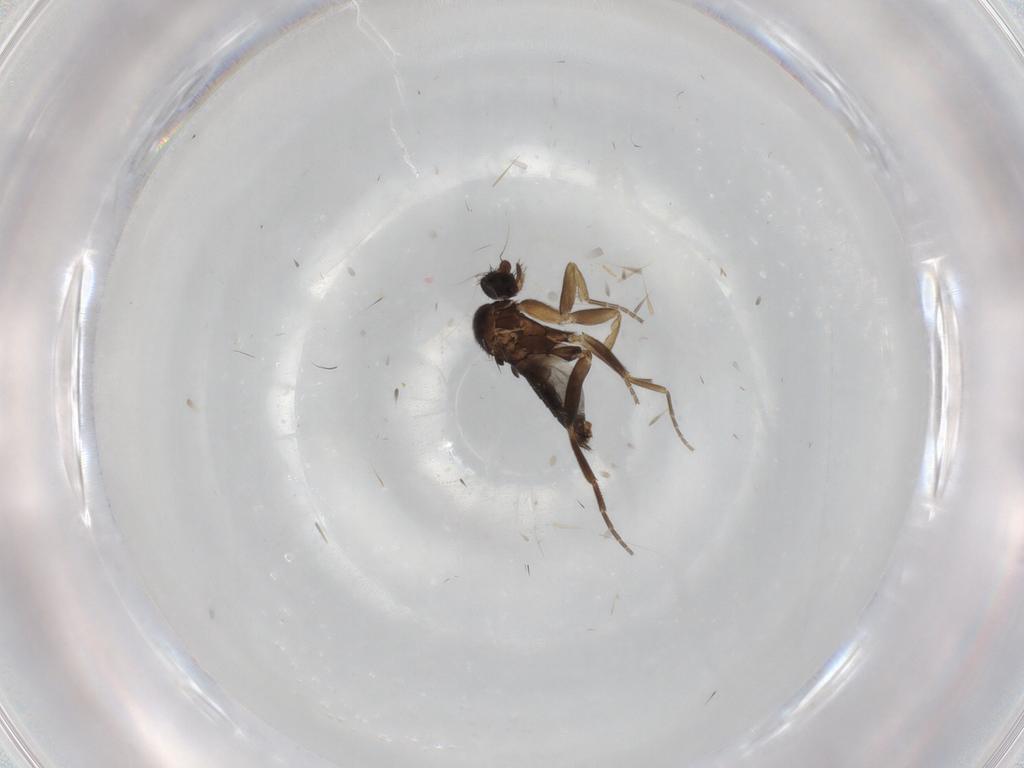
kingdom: Animalia
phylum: Arthropoda
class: Insecta
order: Diptera
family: Phoridae
